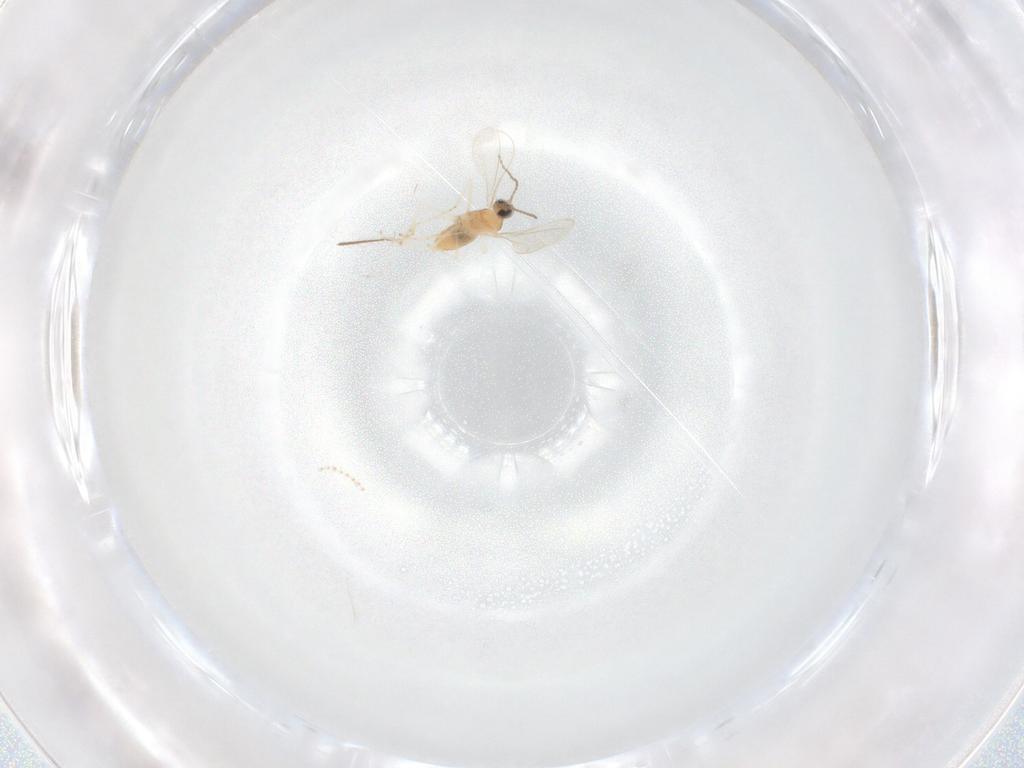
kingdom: Animalia
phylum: Arthropoda
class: Insecta
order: Diptera
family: Cecidomyiidae
